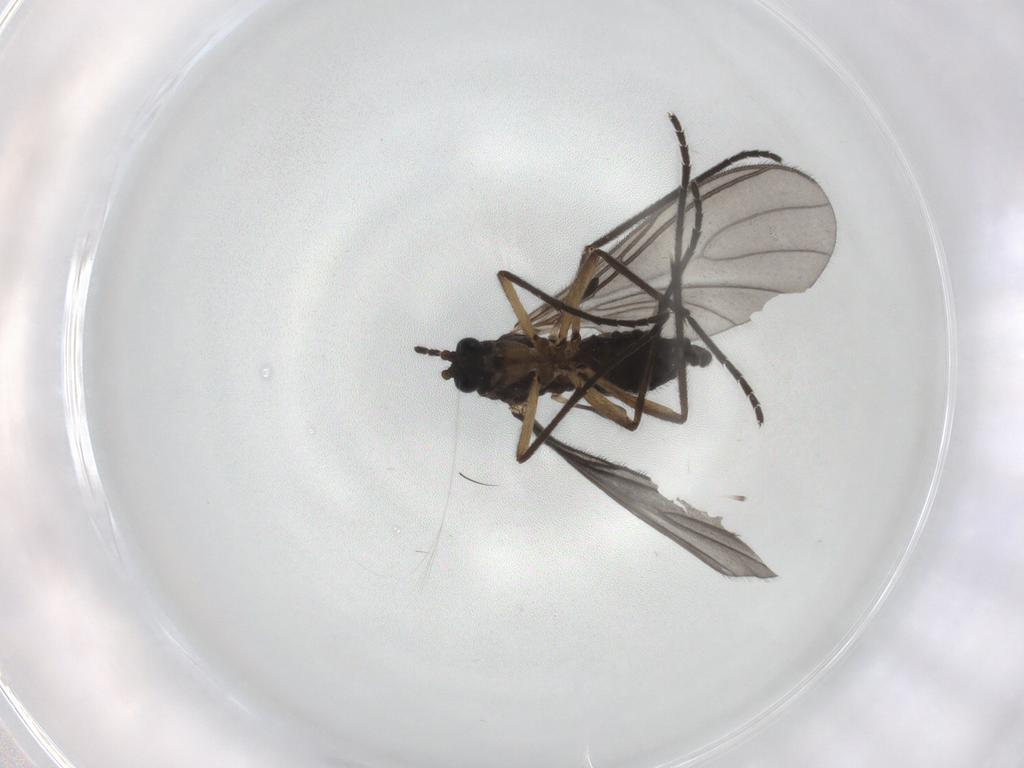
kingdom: Animalia
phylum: Arthropoda
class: Insecta
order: Diptera
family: Sciaridae
